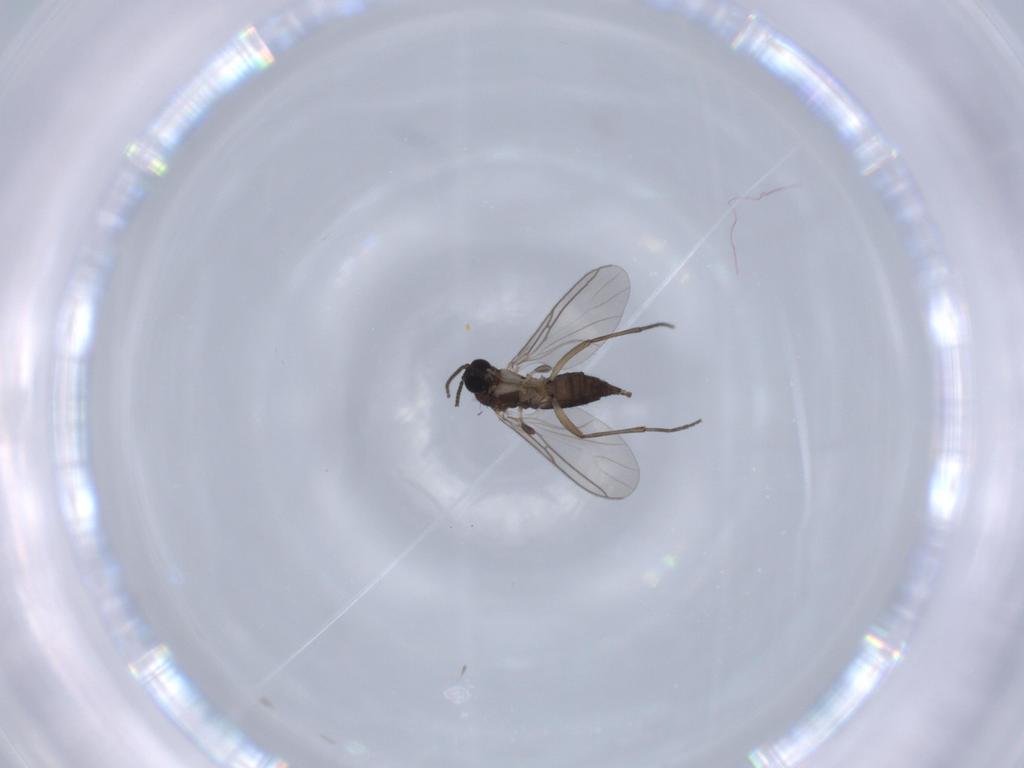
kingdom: Animalia
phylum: Arthropoda
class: Insecta
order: Diptera
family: Sciaridae
